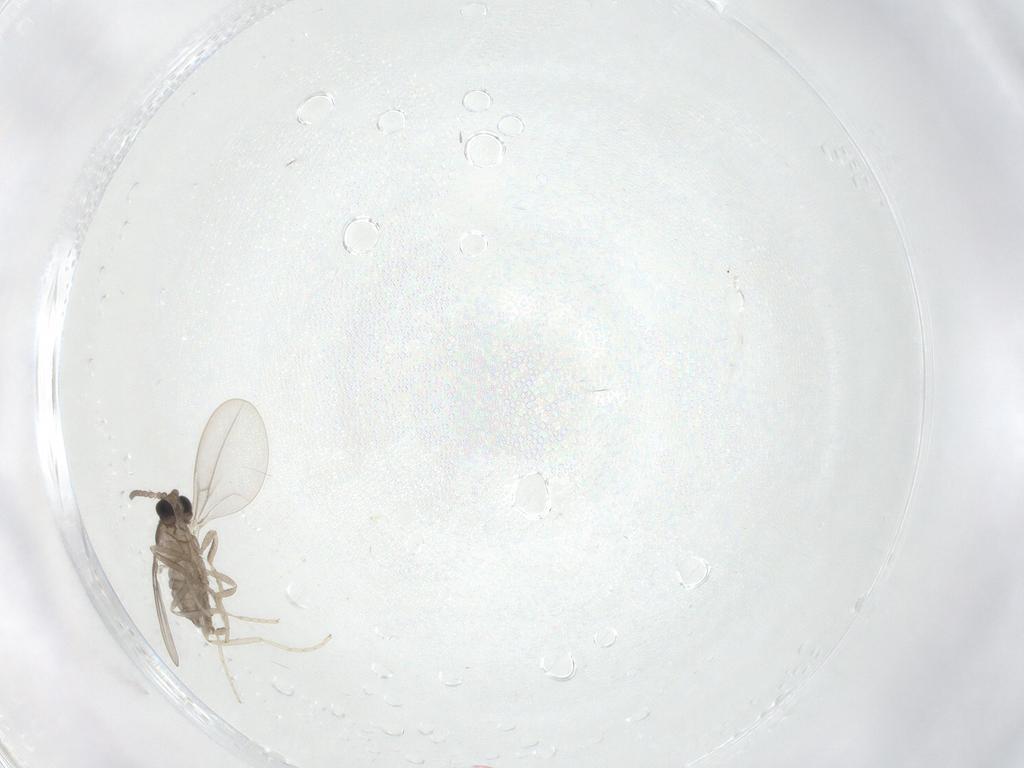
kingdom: Animalia
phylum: Arthropoda
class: Insecta
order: Diptera
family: Cecidomyiidae
